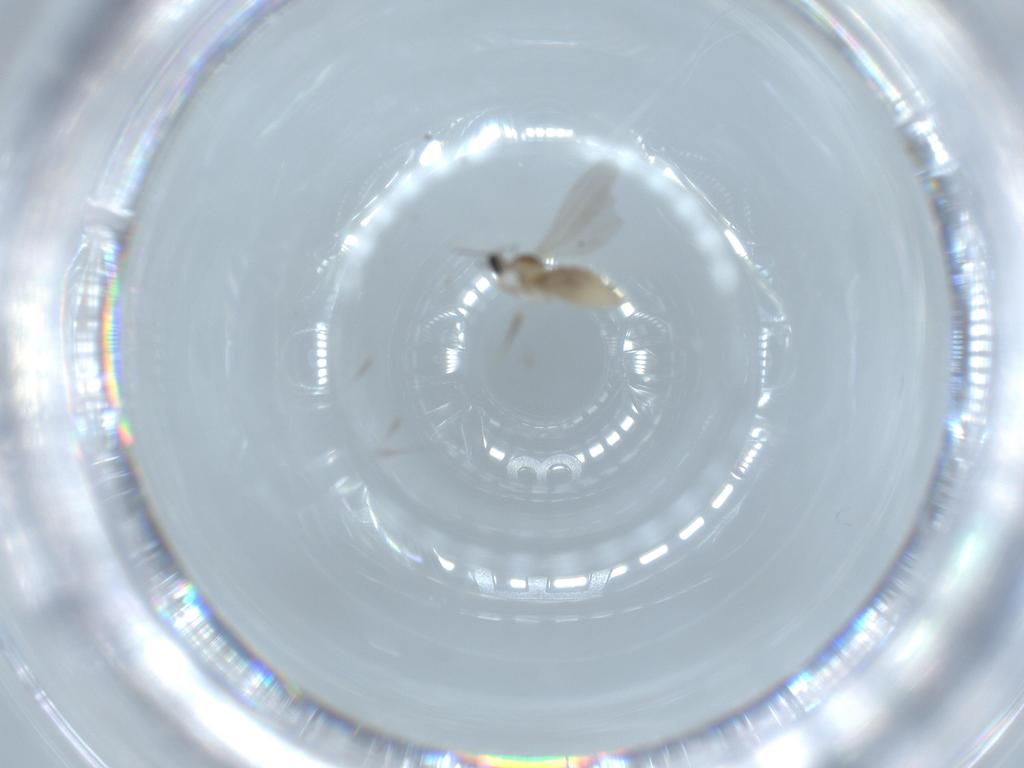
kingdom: Animalia
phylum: Arthropoda
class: Insecta
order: Diptera
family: Cecidomyiidae
